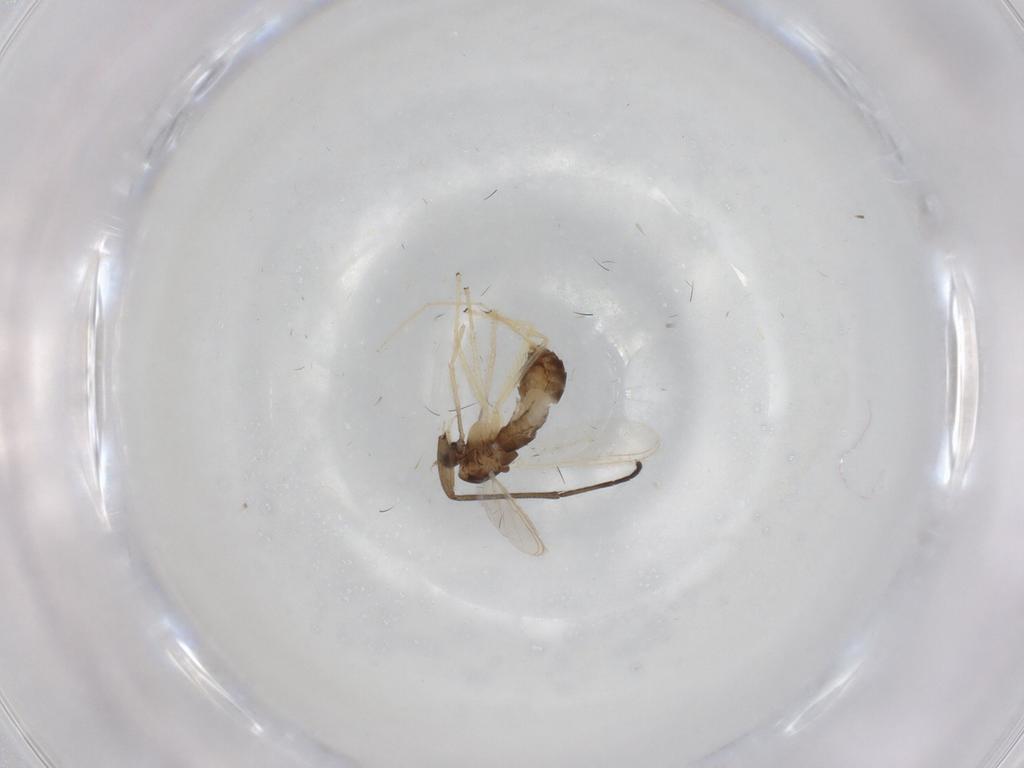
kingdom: Animalia
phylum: Arthropoda
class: Insecta
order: Diptera
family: Chironomidae
